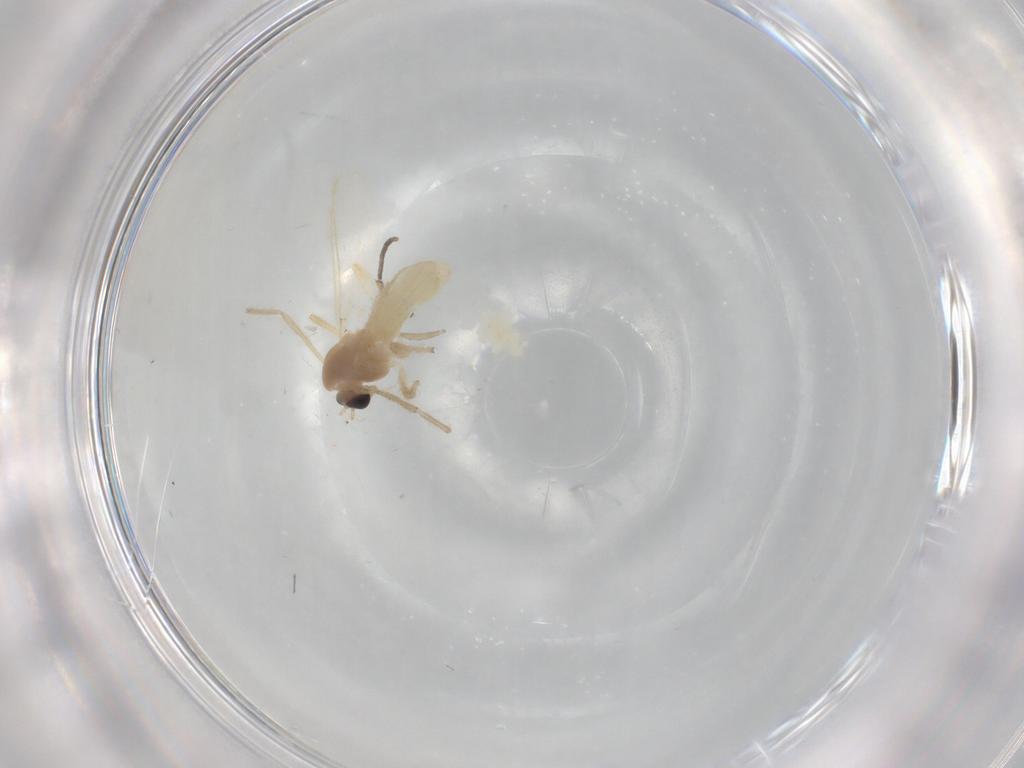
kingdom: Animalia
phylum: Arthropoda
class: Insecta
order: Diptera
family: Chironomidae
